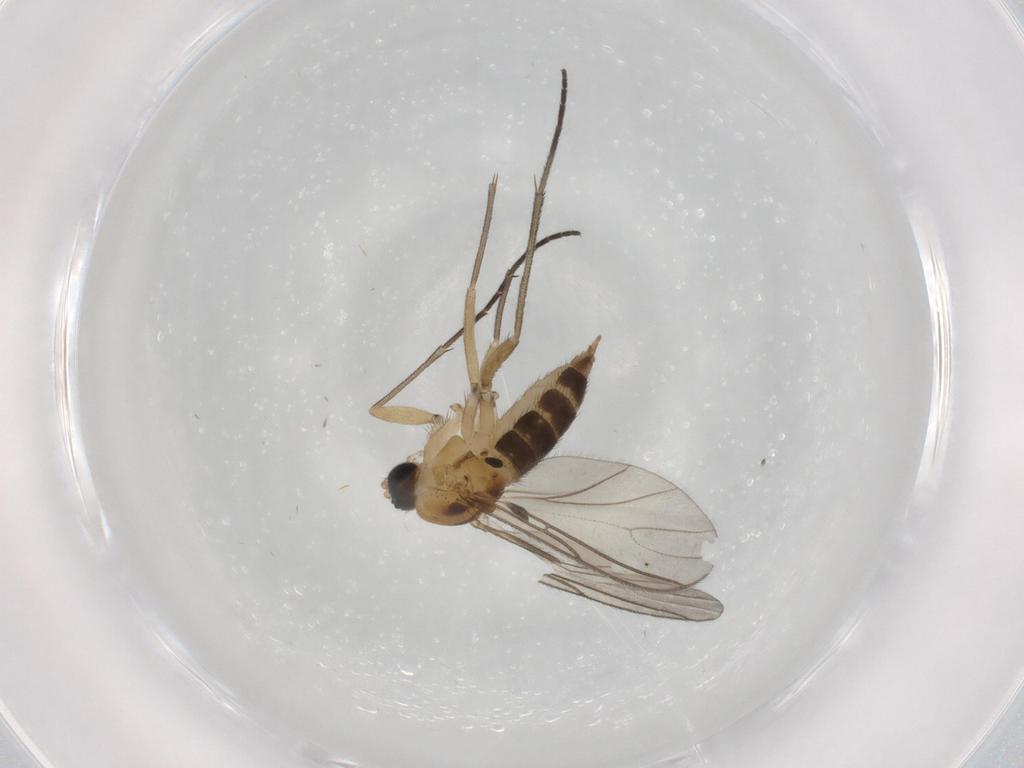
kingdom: Animalia
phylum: Arthropoda
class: Insecta
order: Diptera
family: Sciaridae
